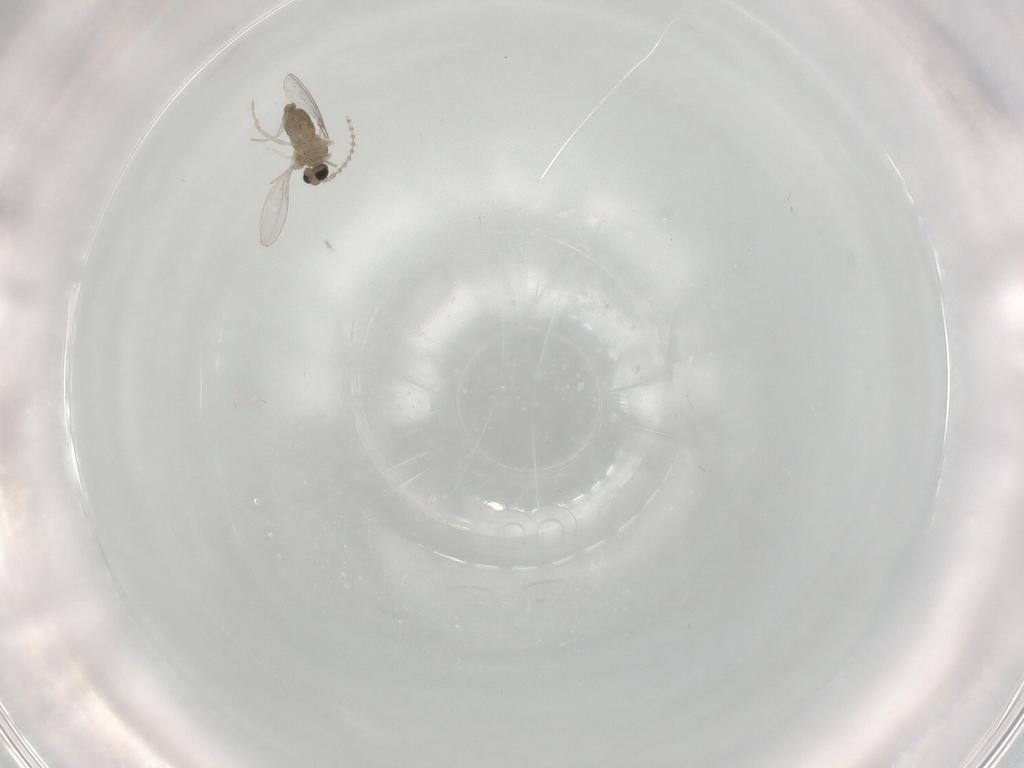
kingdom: Animalia
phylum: Arthropoda
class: Insecta
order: Diptera
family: Cecidomyiidae
